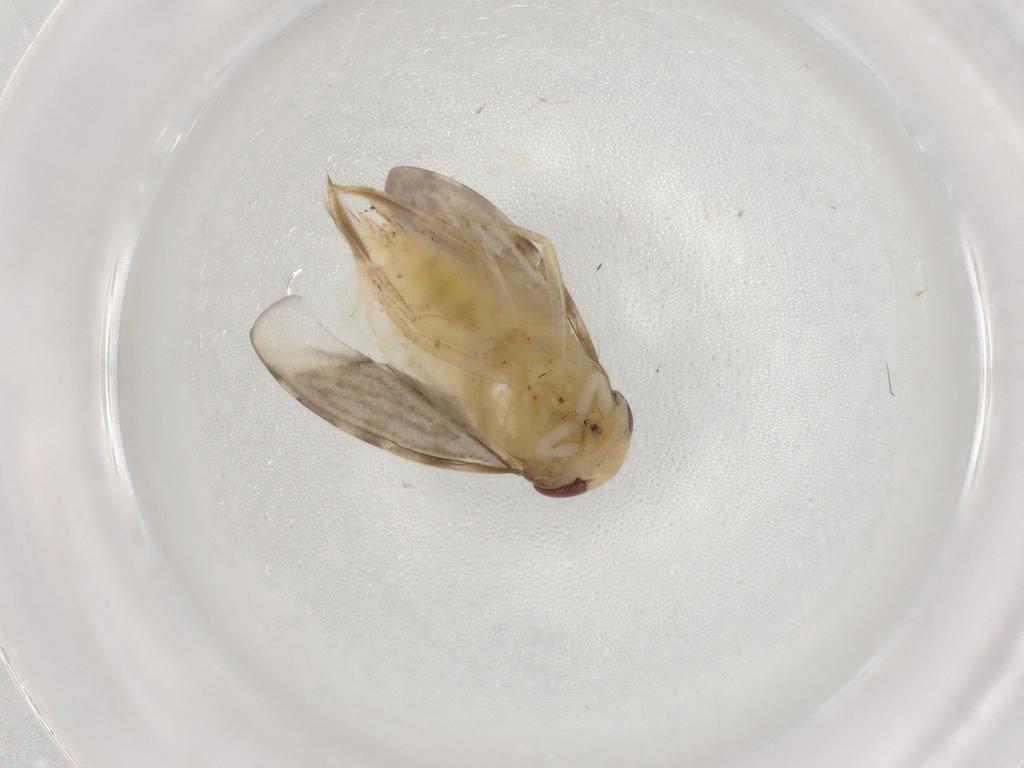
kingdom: Animalia
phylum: Arthropoda
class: Insecta
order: Hemiptera
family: Corixidae
